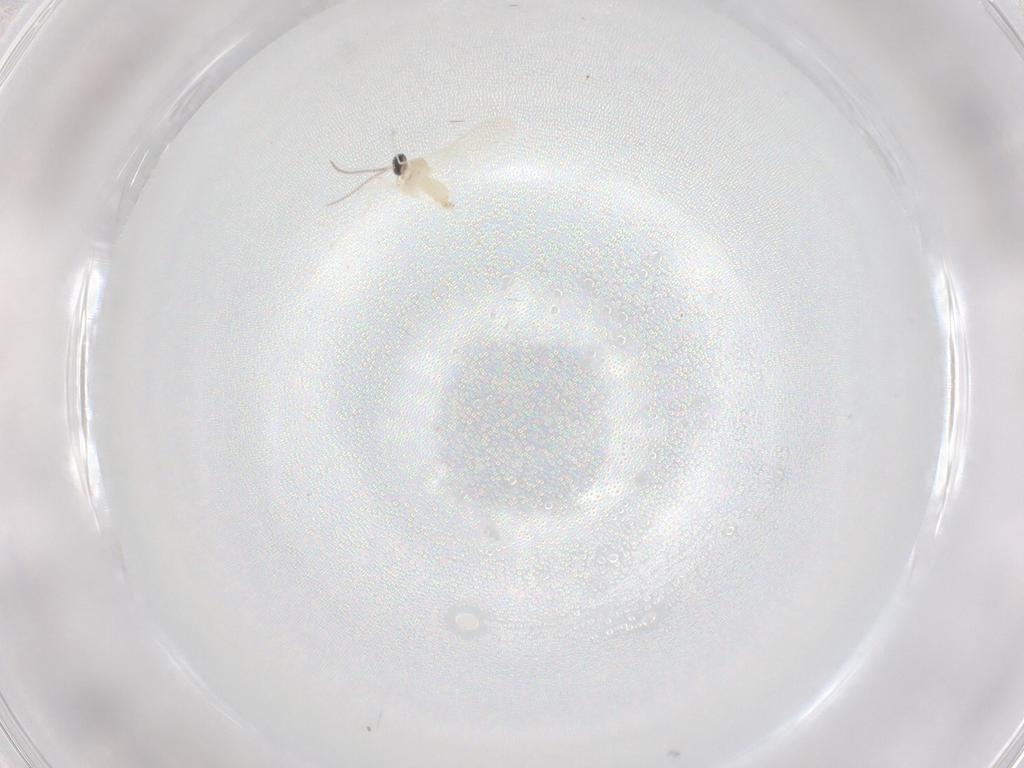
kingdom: Animalia
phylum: Arthropoda
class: Insecta
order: Diptera
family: Cecidomyiidae
